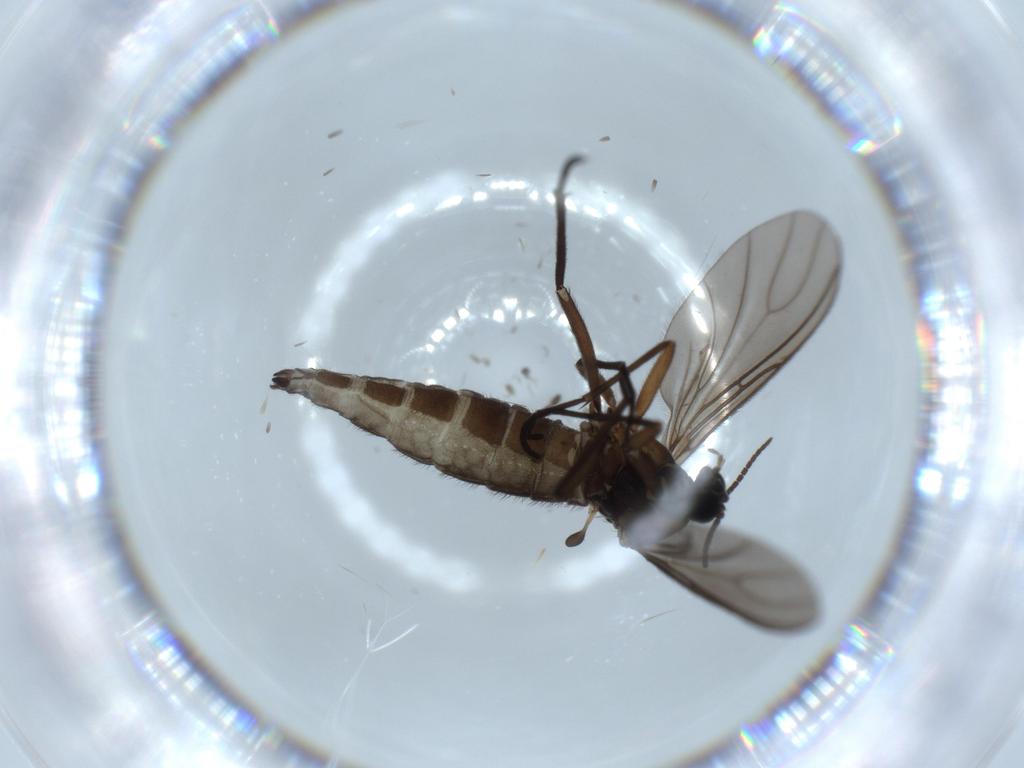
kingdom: Animalia
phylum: Arthropoda
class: Insecta
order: Diptera
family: Sciaridae
